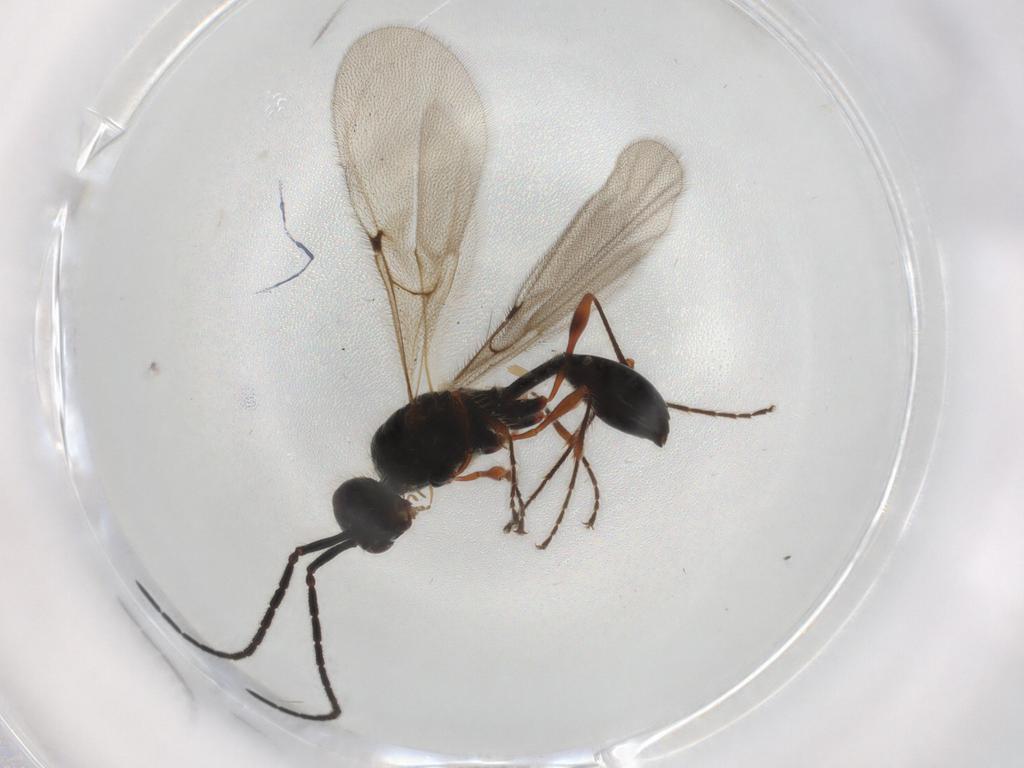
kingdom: Animalia
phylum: Arthropoda
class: Insecta
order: Hymenoptera
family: Diapriidae
